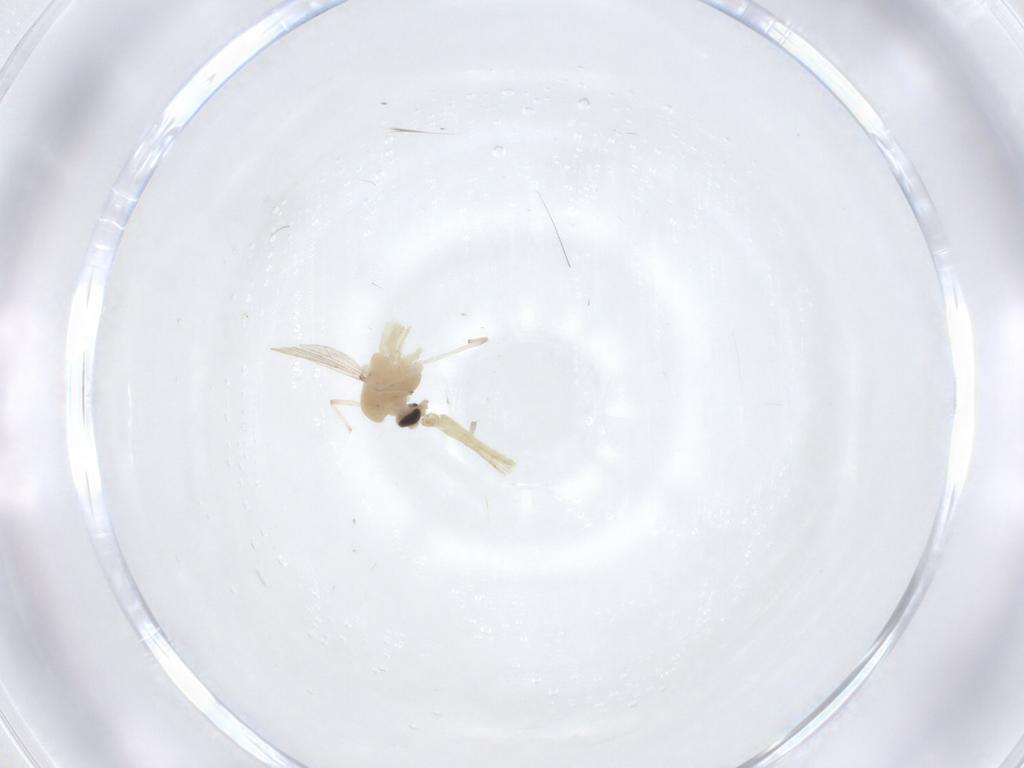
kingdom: Animalia
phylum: Arthropoda
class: Insecta
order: Diptera
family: Chironomidae
